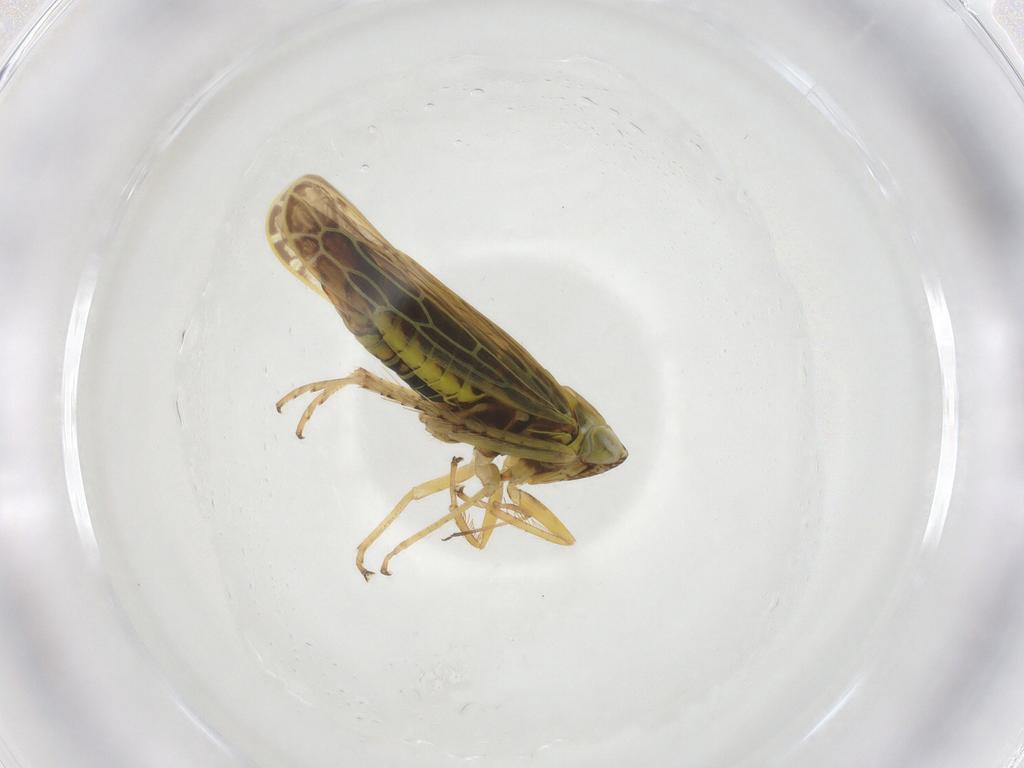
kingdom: Animalia
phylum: Arthropoda
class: Insecta
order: Hemiptera
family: Aphididae
